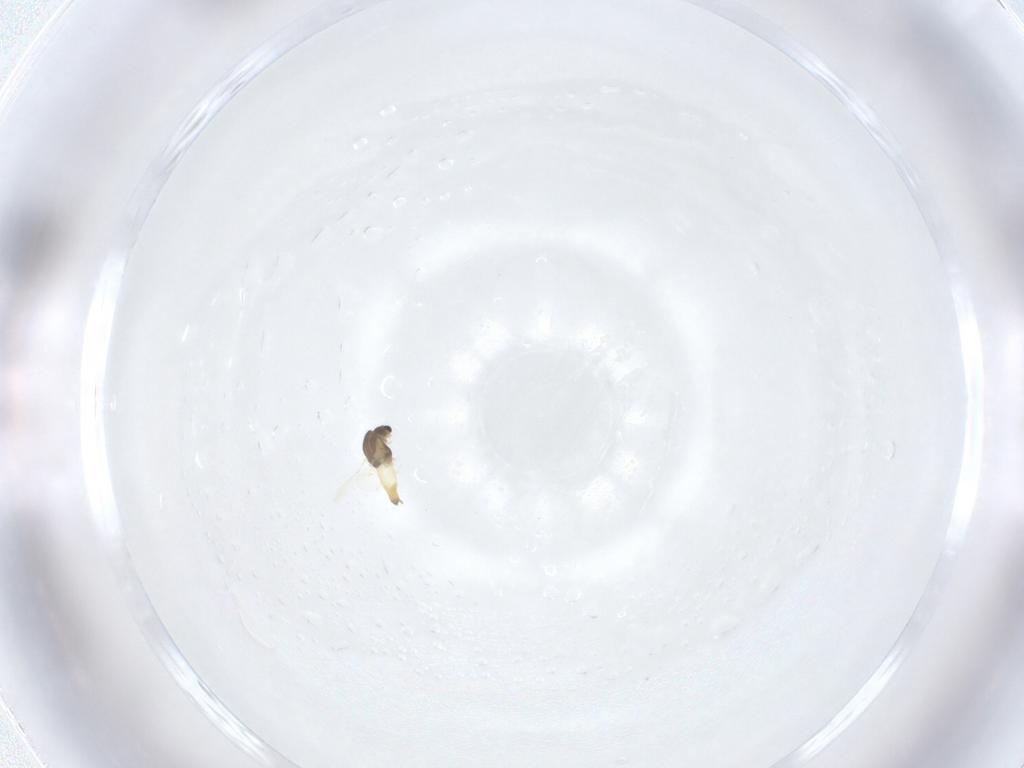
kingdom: Animalia
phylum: Arthropoda
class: Insecta
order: Diptera
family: Chironomidae
